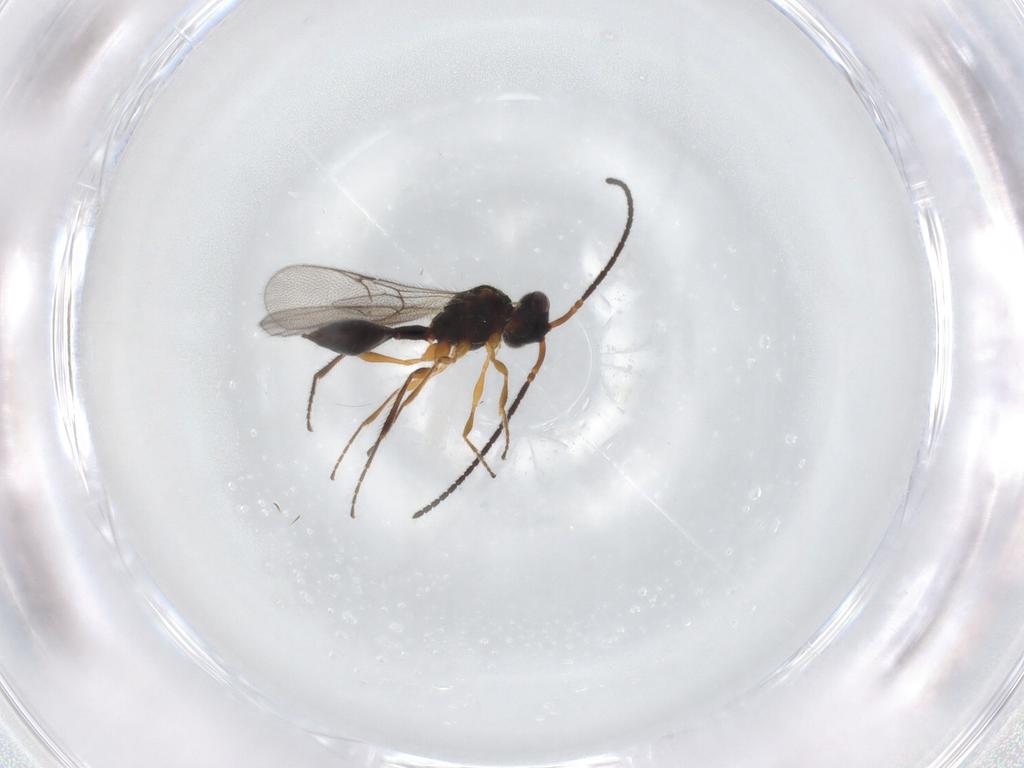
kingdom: Animalia
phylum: Arthropoda
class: Insecta
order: Hymenoptera
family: Diapriidae
